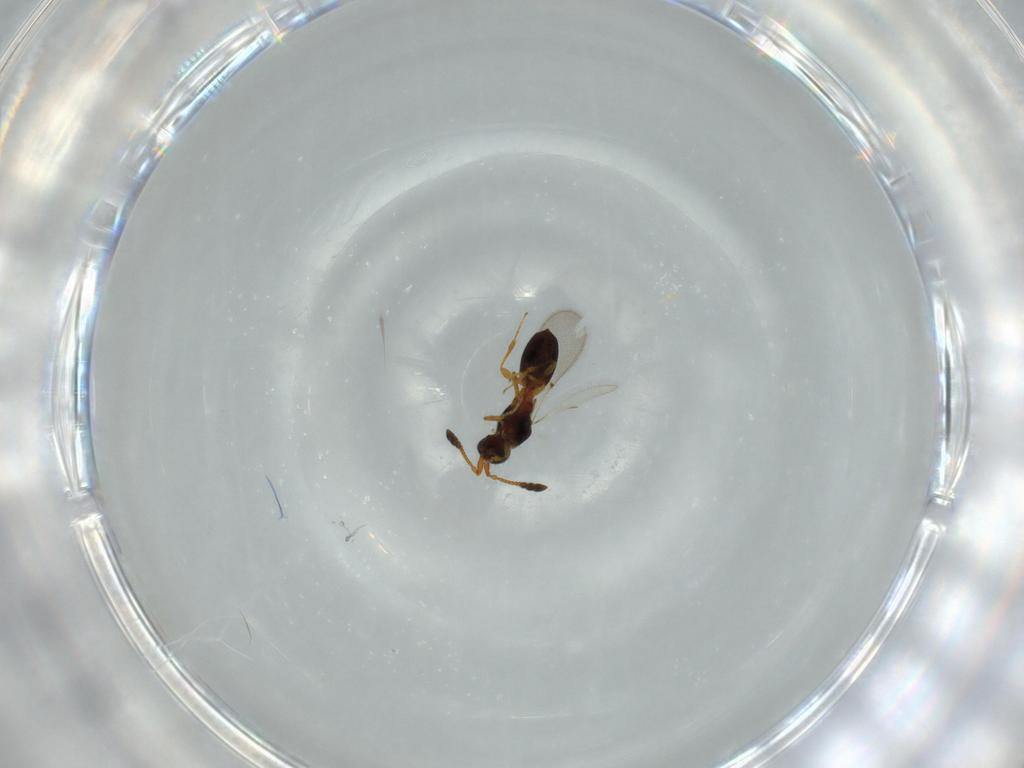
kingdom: Animalia
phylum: Arthropoda
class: Insecta
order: Hymenoptera
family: Diapriidae
